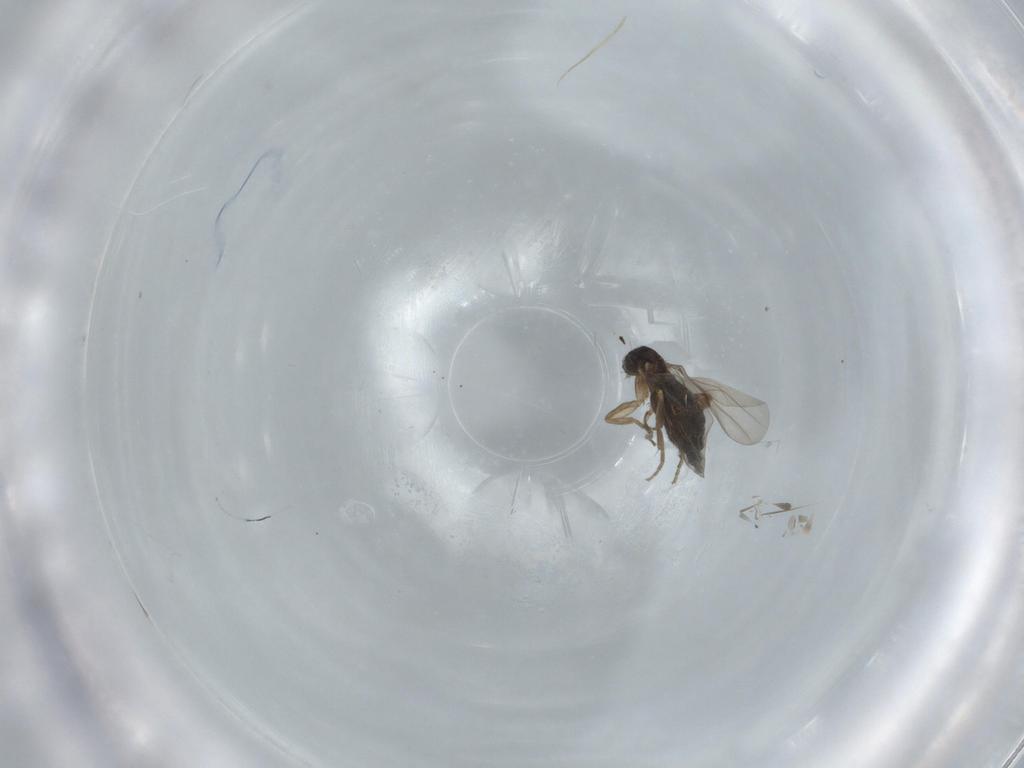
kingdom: Animalia
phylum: Arthropoda
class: Insecta
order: Diptera
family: Phoridae
